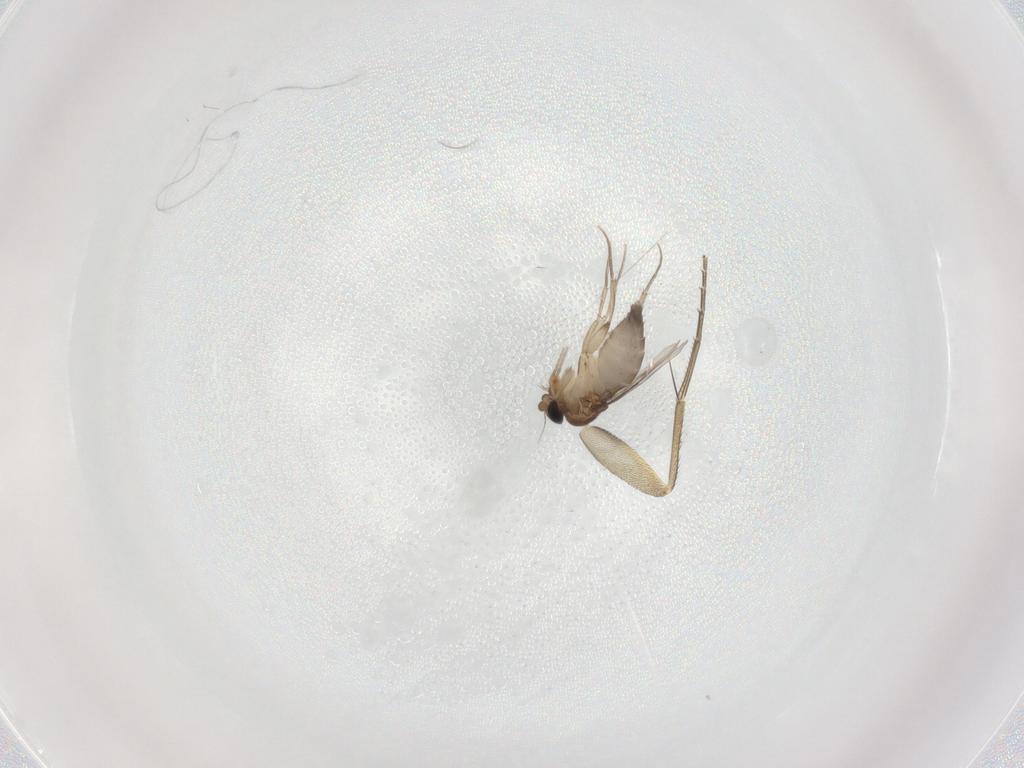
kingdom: Animalia
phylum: Arthropoda
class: Insecta
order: Diptera
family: Phoridae
